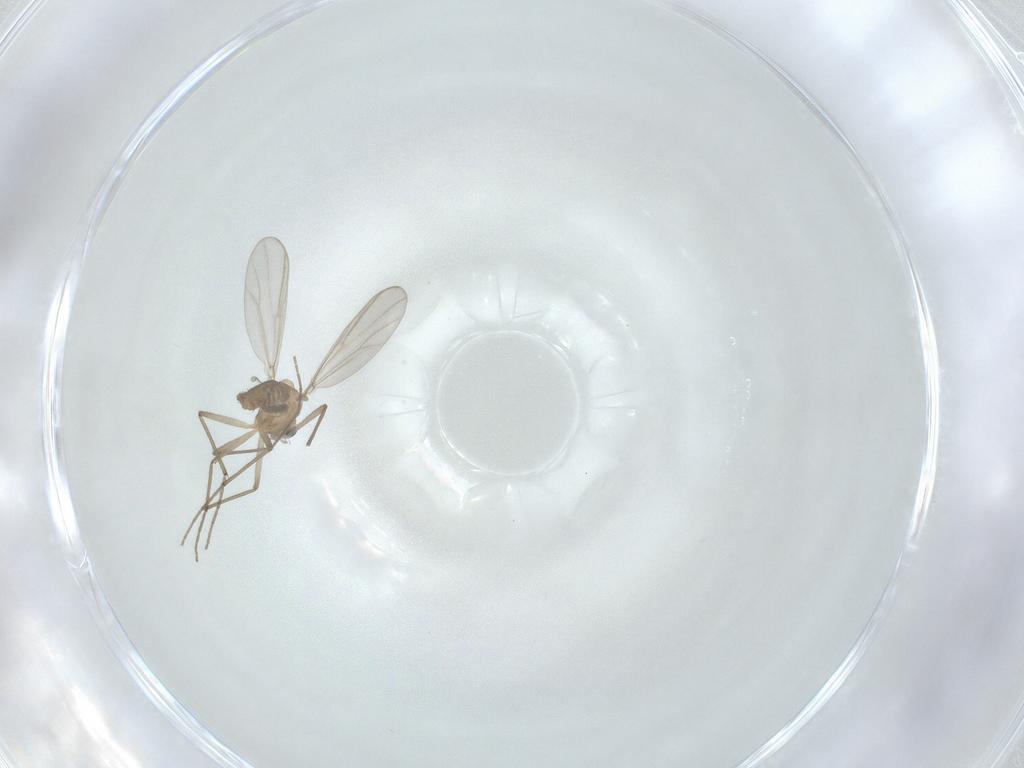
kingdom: Animalia
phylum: Arthropoda
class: Insecta
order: Diptera
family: Chironomidae
